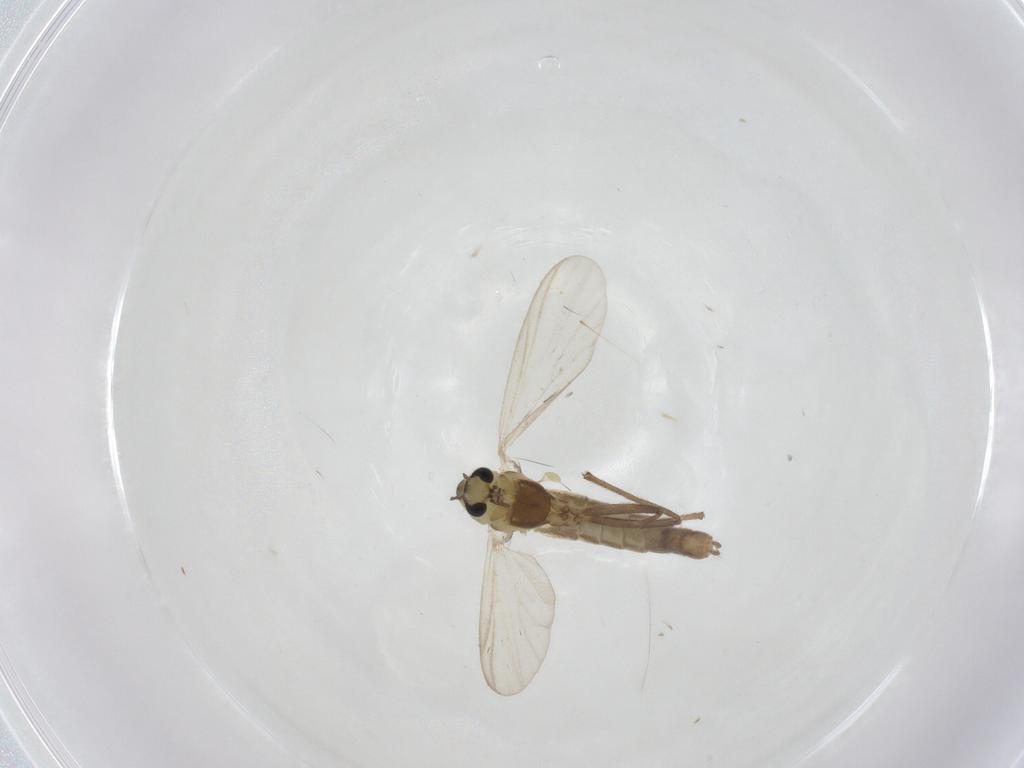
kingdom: Animalia
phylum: Arthropoda
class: Insecta
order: Diptera
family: Chironomidae
